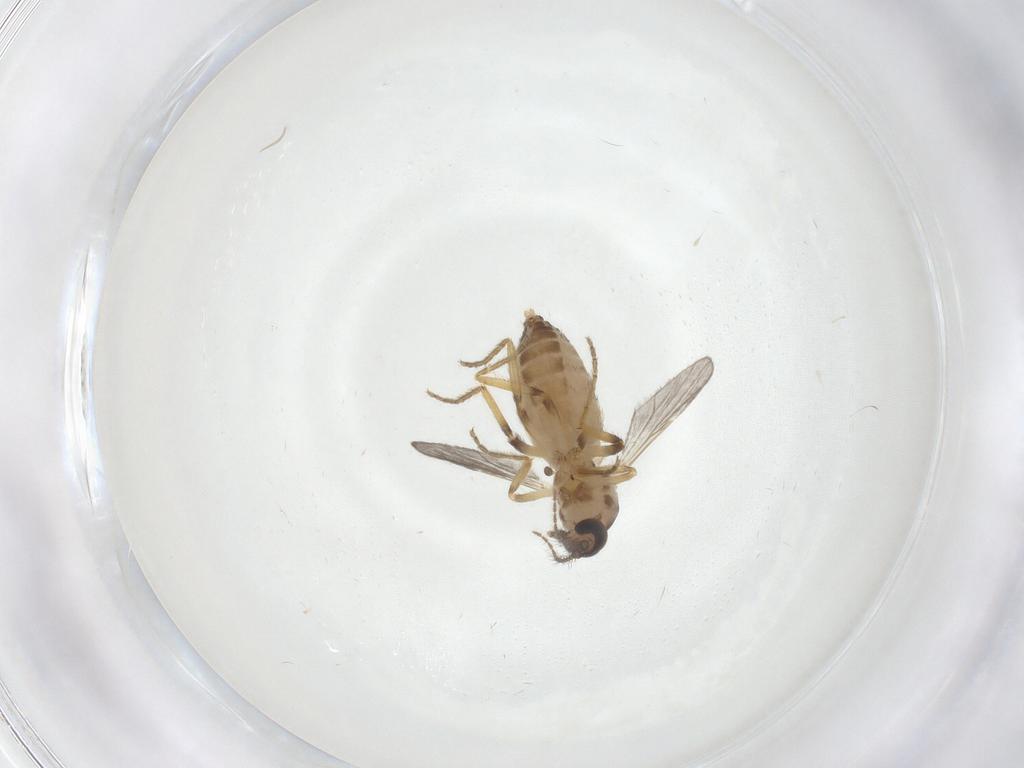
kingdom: Animalia
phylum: Arthropoda
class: Insecta
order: Diptera
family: Ceratopogonidae
